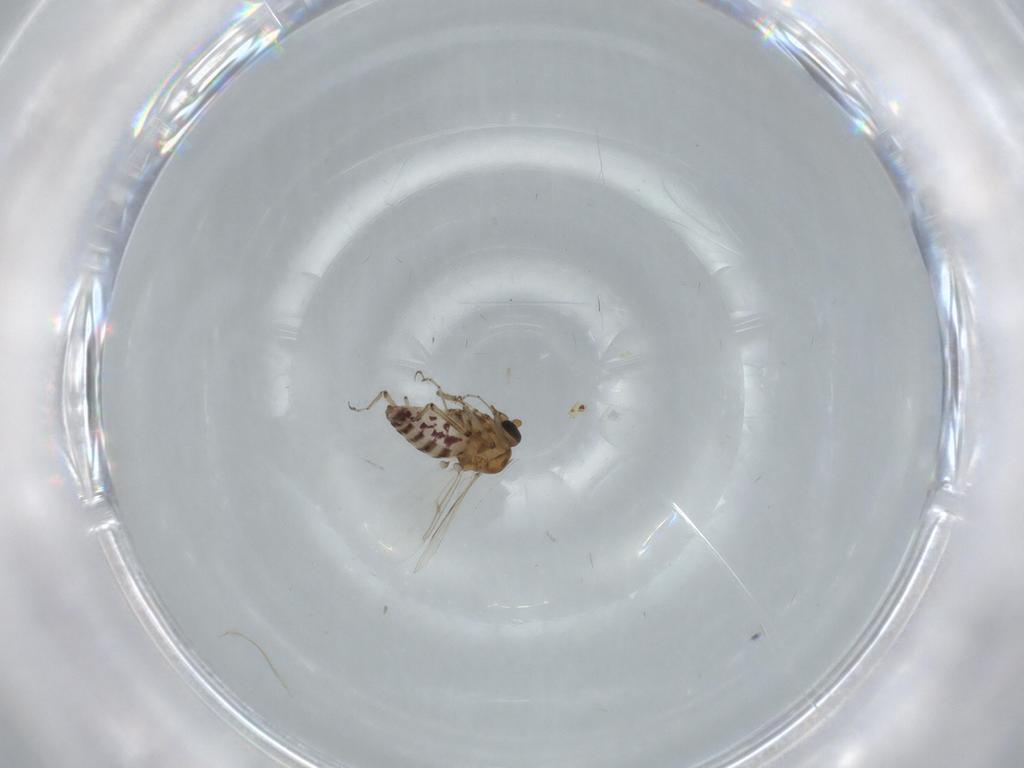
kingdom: Animalia
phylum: Arthropoda
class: Insecta
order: Diptera
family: Ceratopogonidae
